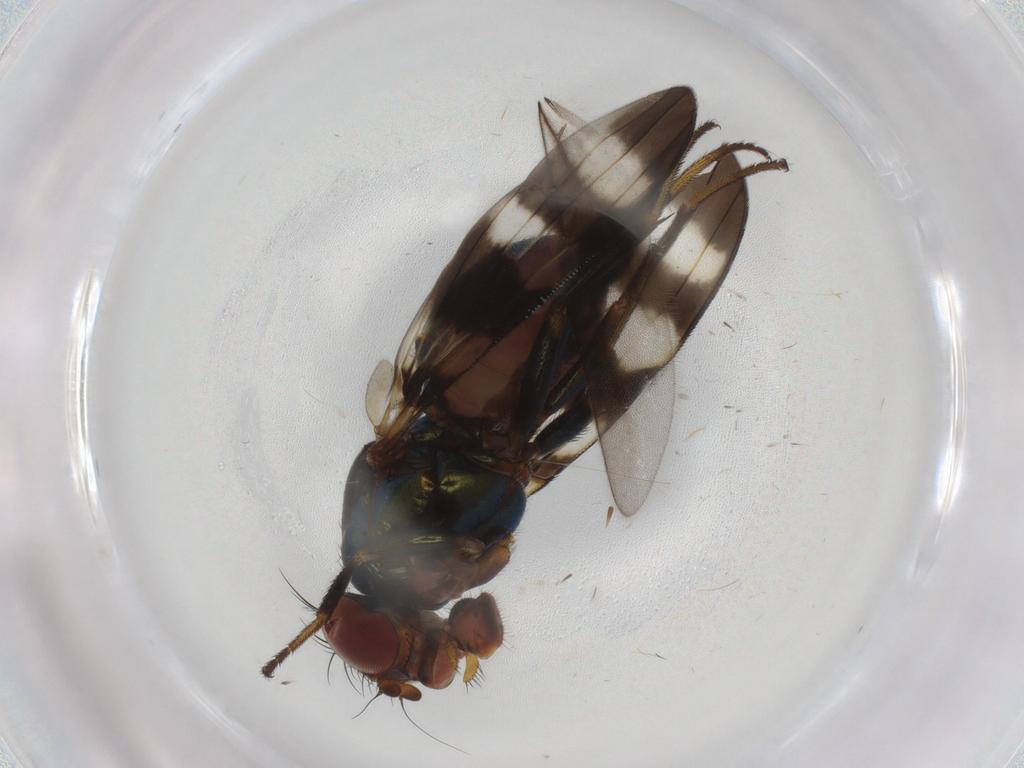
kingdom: Animalia
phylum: Arthropoda
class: Insecta
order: Diptera
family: Ulidiidae
